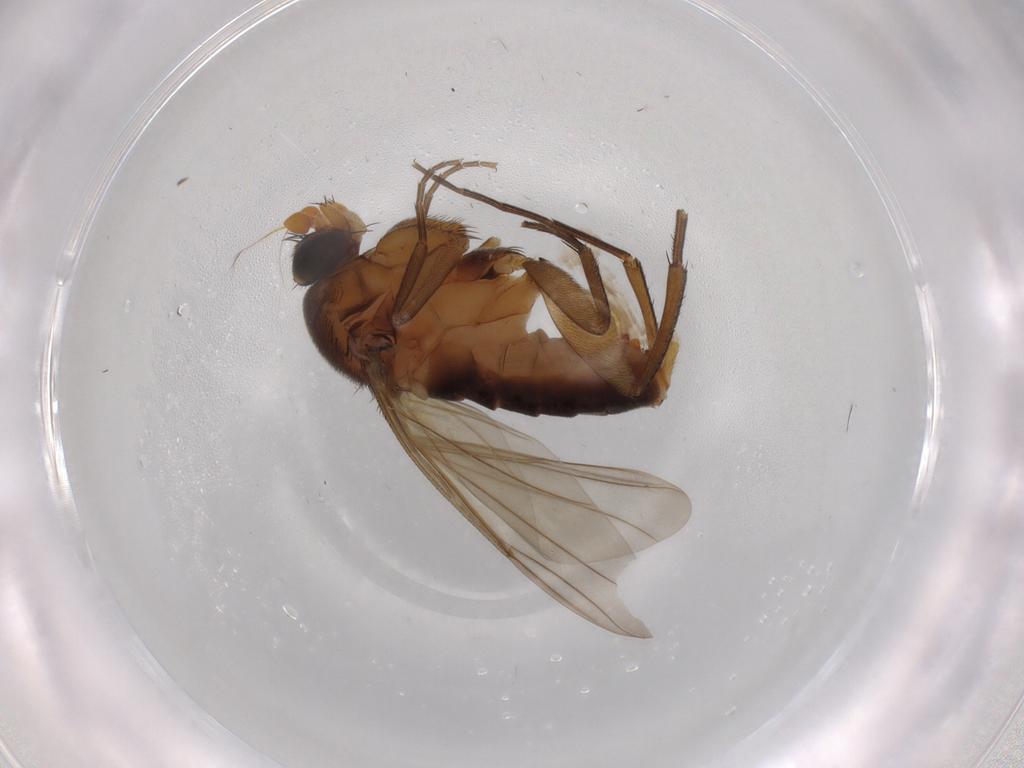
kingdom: Animalia
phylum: Arthropoda
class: Insecta
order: Diptera
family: Phoridae
